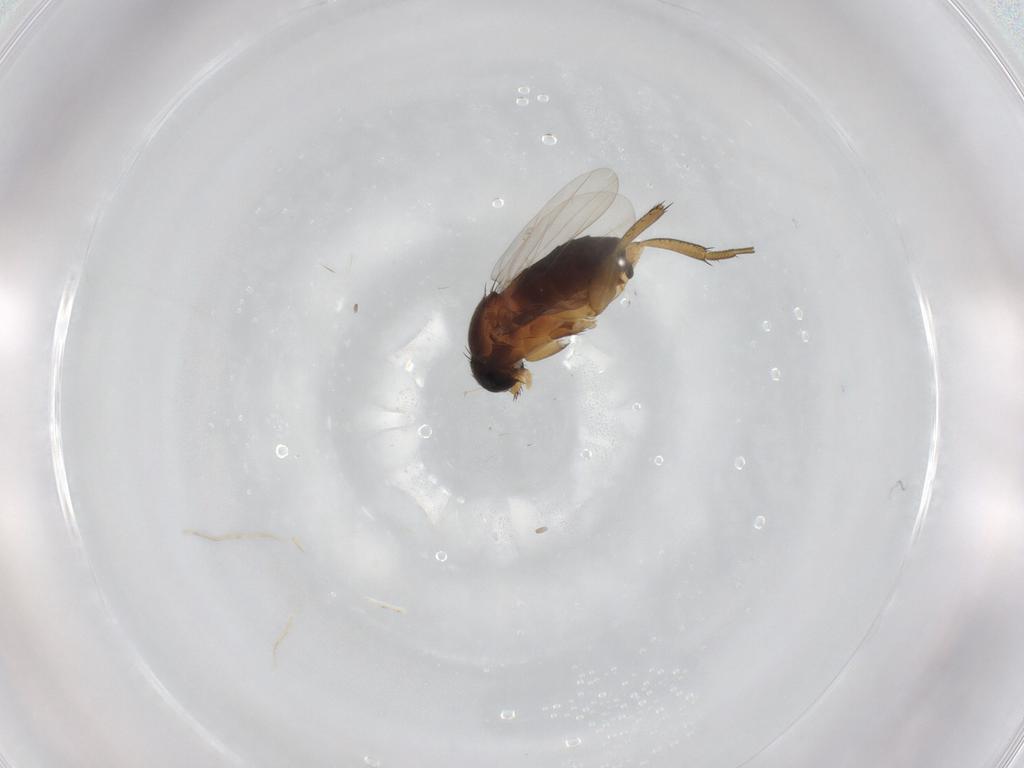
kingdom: Animalia
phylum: Arthropoda
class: Insecta
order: Diptera
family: Phoridae
